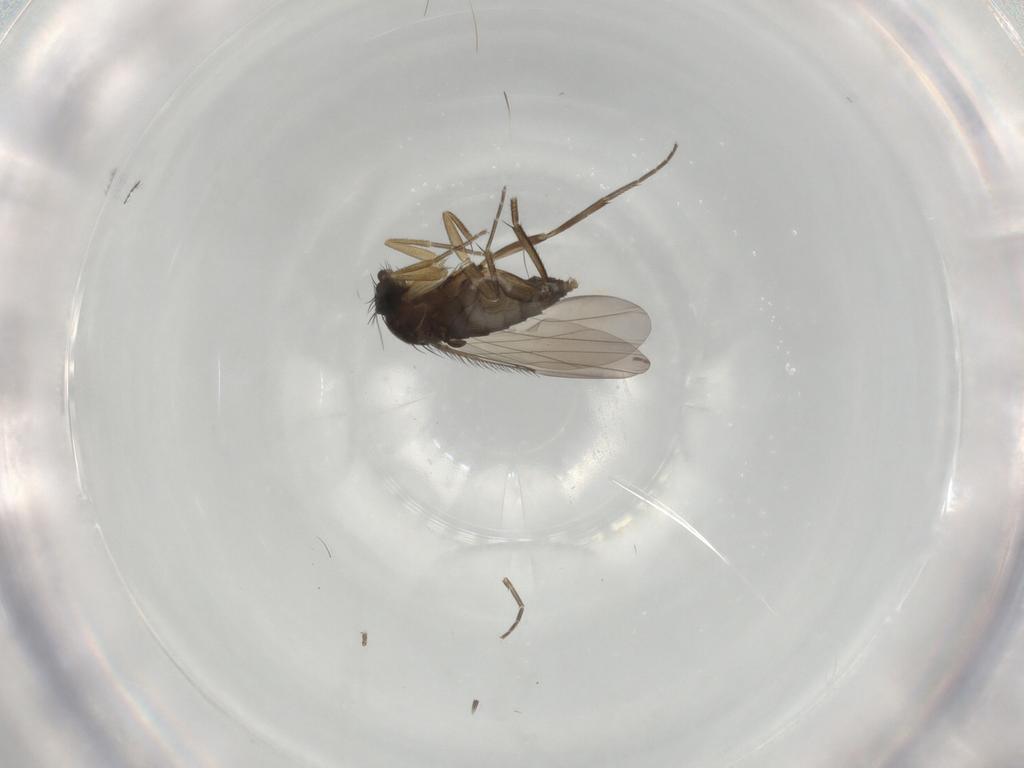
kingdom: Animalia
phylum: Arthropoda
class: Insecta
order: Diptera
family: Phoridae
